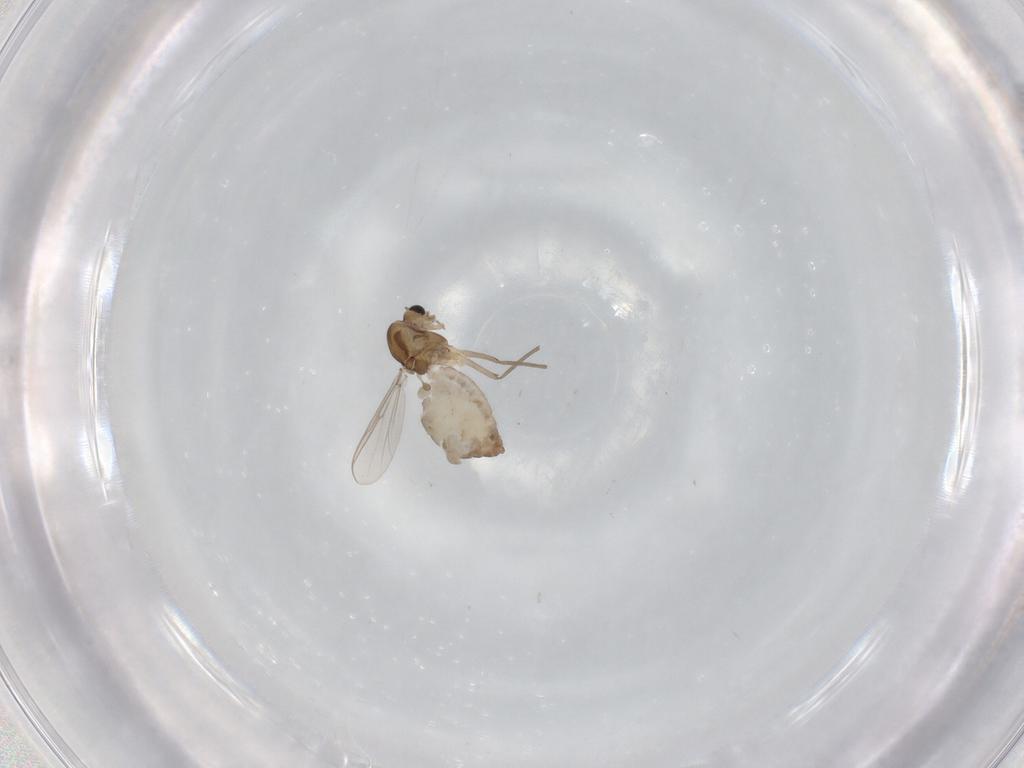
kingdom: Animalia
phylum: Arthropoda
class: Insecta
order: Diptera
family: Chironomidae
